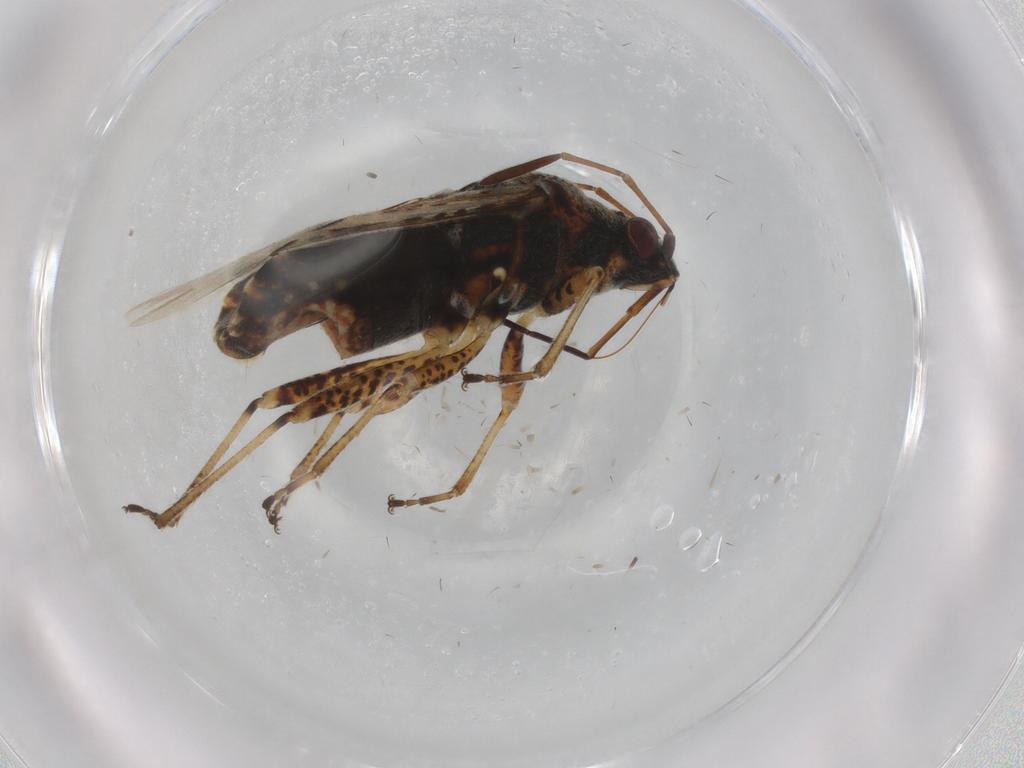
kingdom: Animalia
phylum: Arthropoda
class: Insecta
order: Hemiptera
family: Lygaeidae
